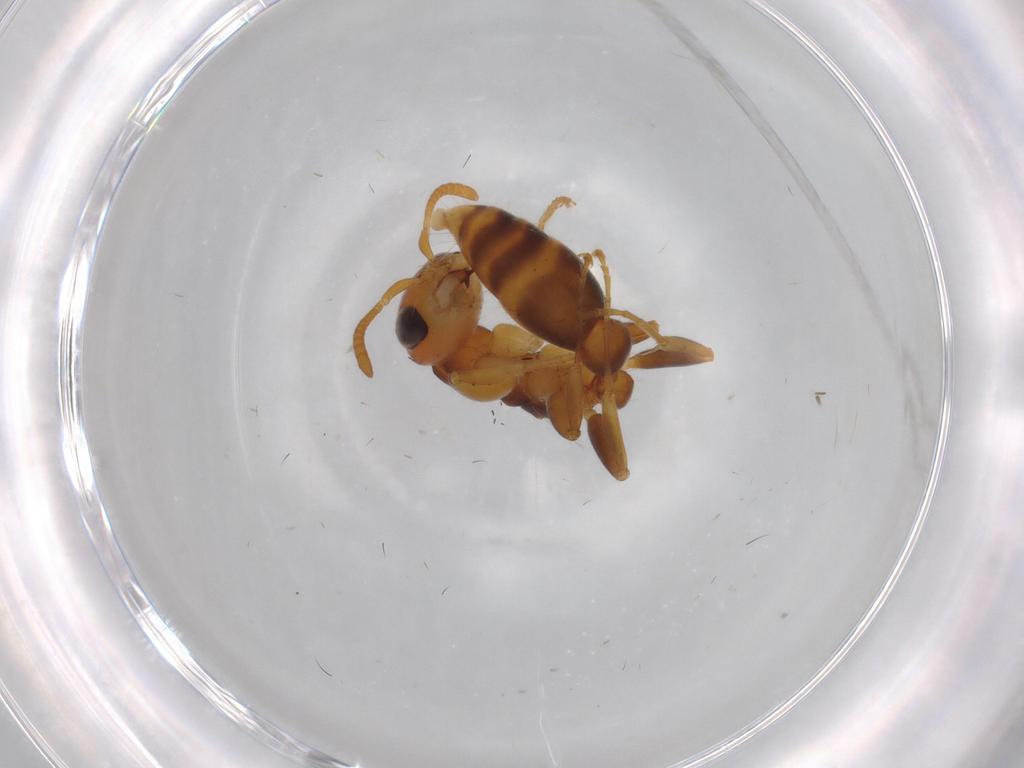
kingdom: Animalia
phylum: Arthropoda
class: Insecta
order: Hymenoptera
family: Formicidae
